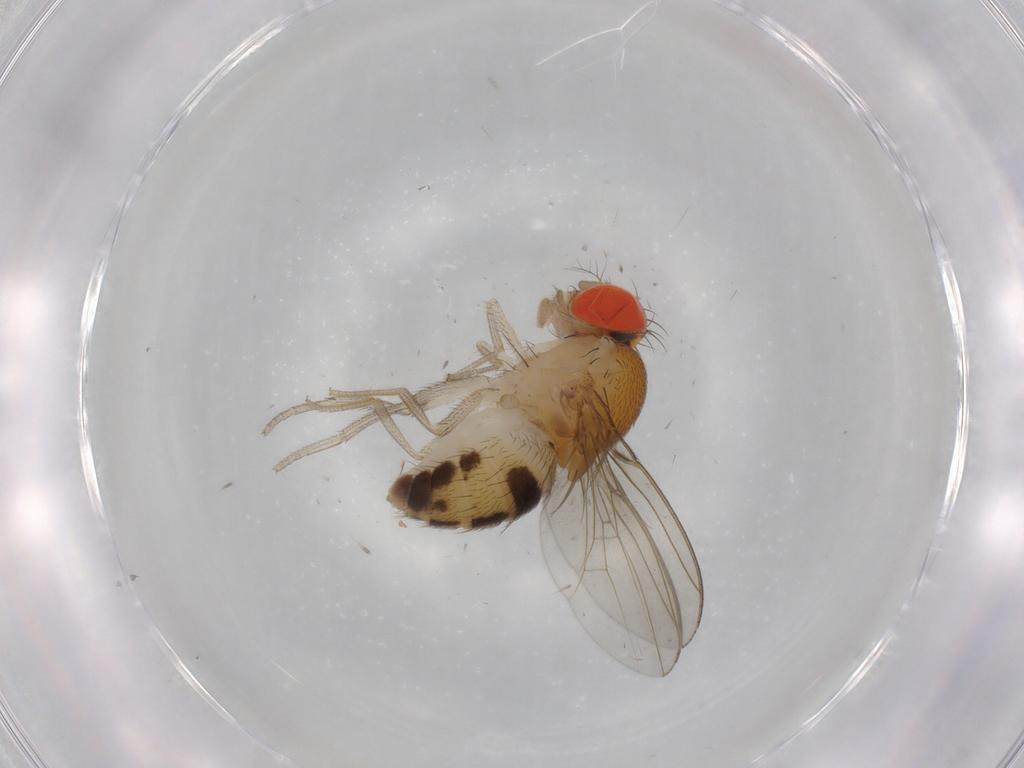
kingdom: Animalia
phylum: Arthropoda
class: Insecta
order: Diptera
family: Drosophilidae
